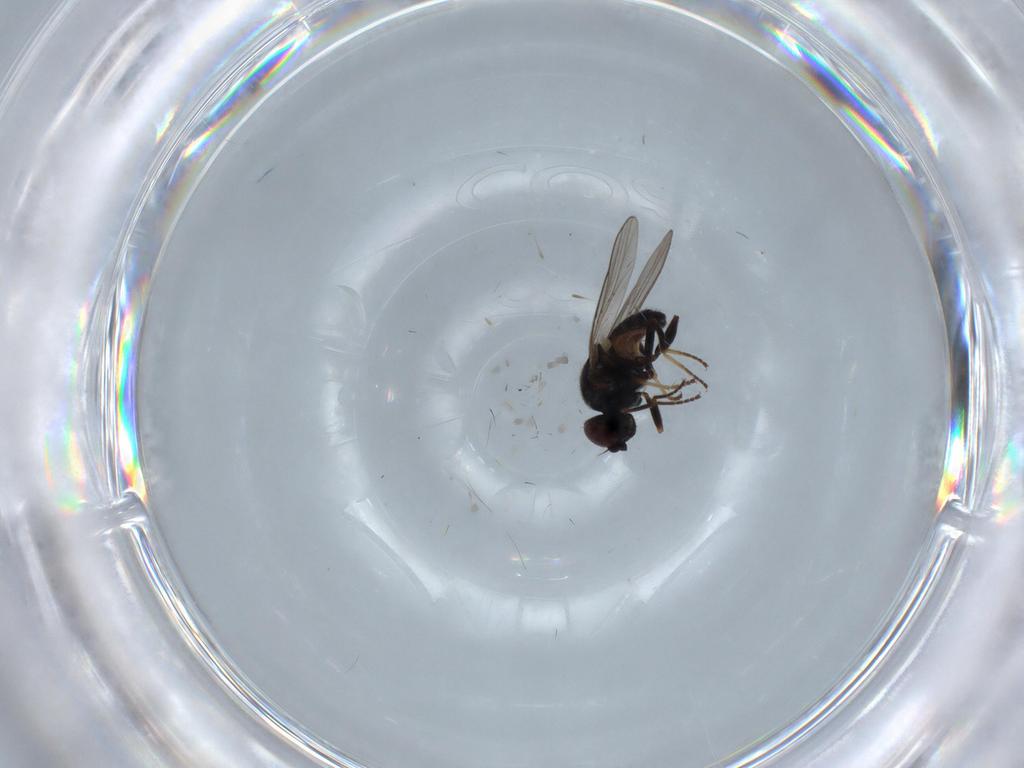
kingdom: Animalia
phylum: Arthropoda
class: Insecta
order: Diptera
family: Chloropidae
